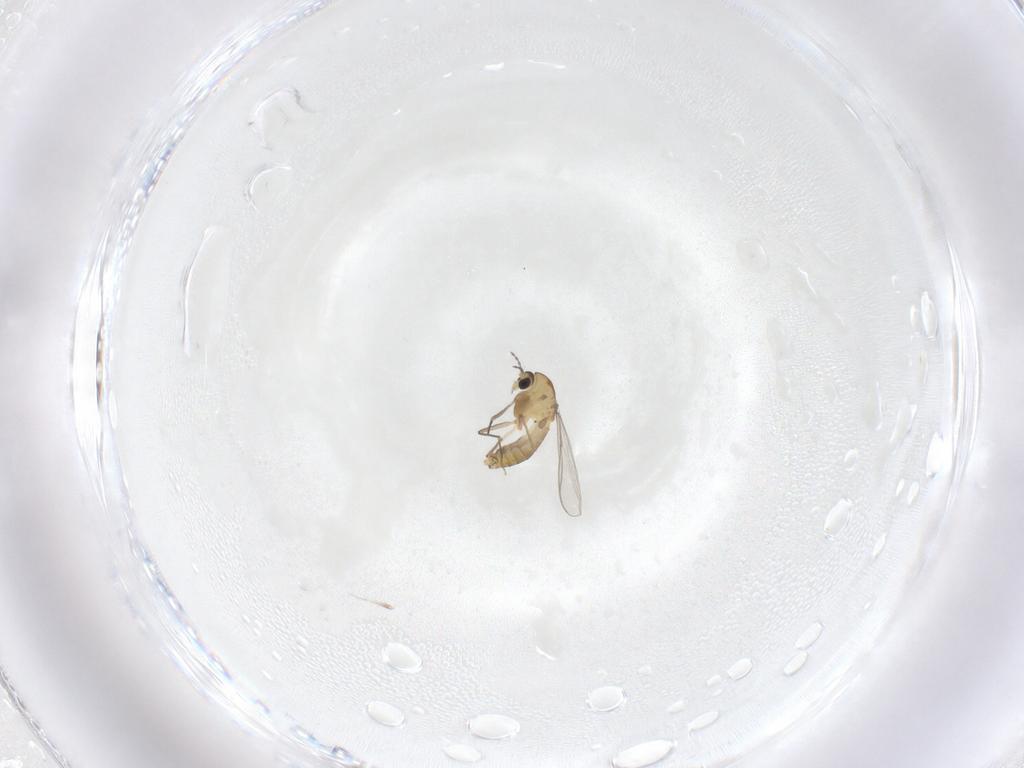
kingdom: Animalia
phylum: Arthropoda
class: Insecta
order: Diptera
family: Chironomidae
